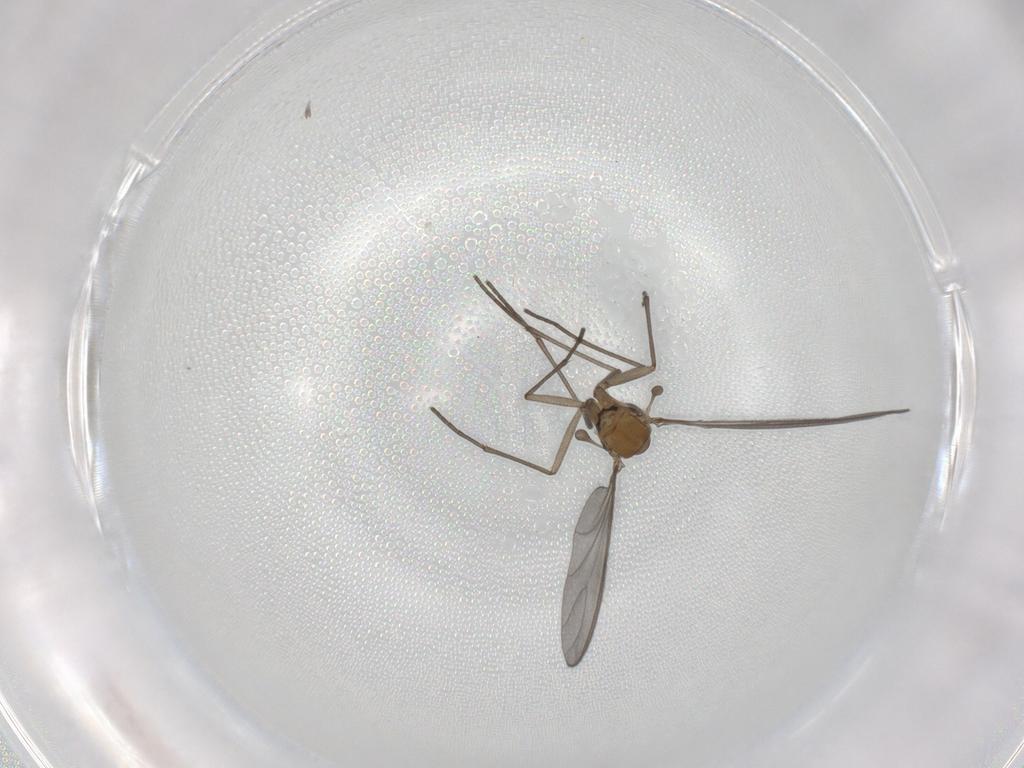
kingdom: Animalia
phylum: Arthropoda
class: Insecta
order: Diptera
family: Sciaridae
